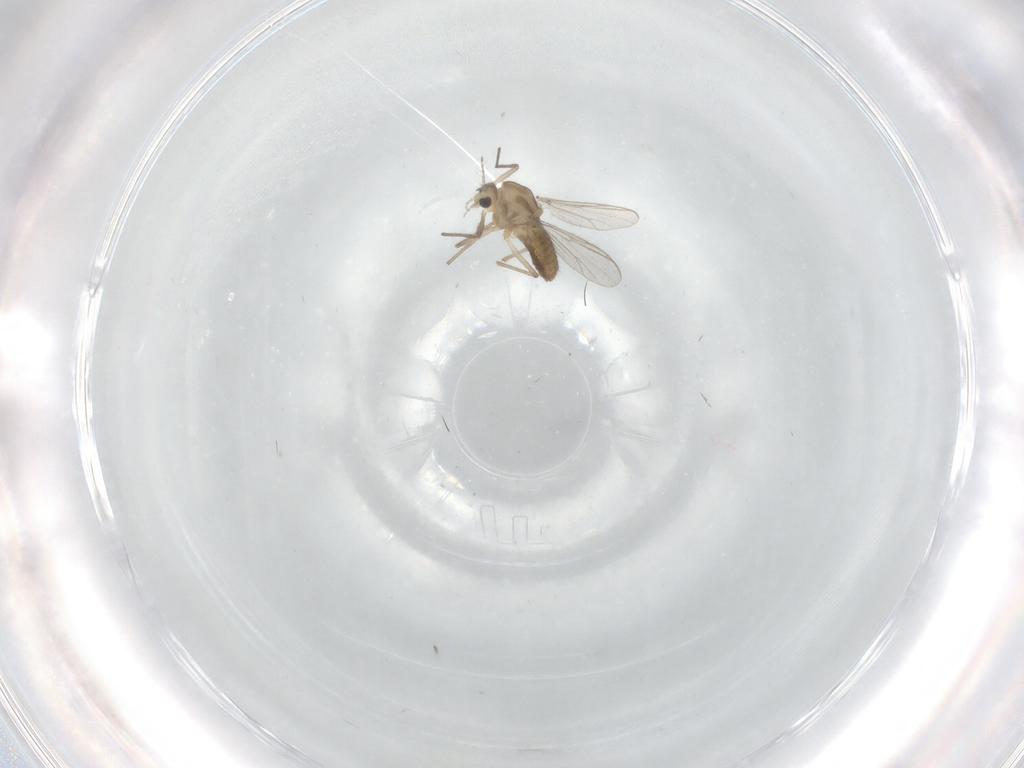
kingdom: Animalia
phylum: Arthropoda
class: Insecta
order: Diptera
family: Chironomidae
